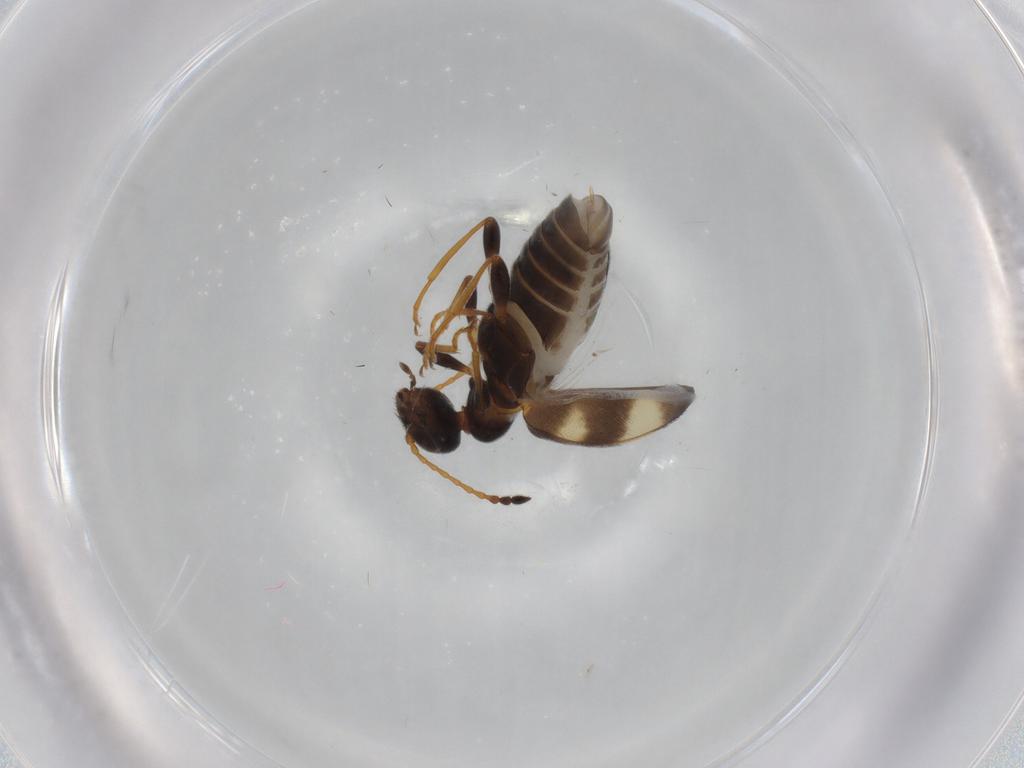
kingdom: Animalia
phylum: Arthropoda
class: Insecta
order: Coleoptera
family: Anthicidae
